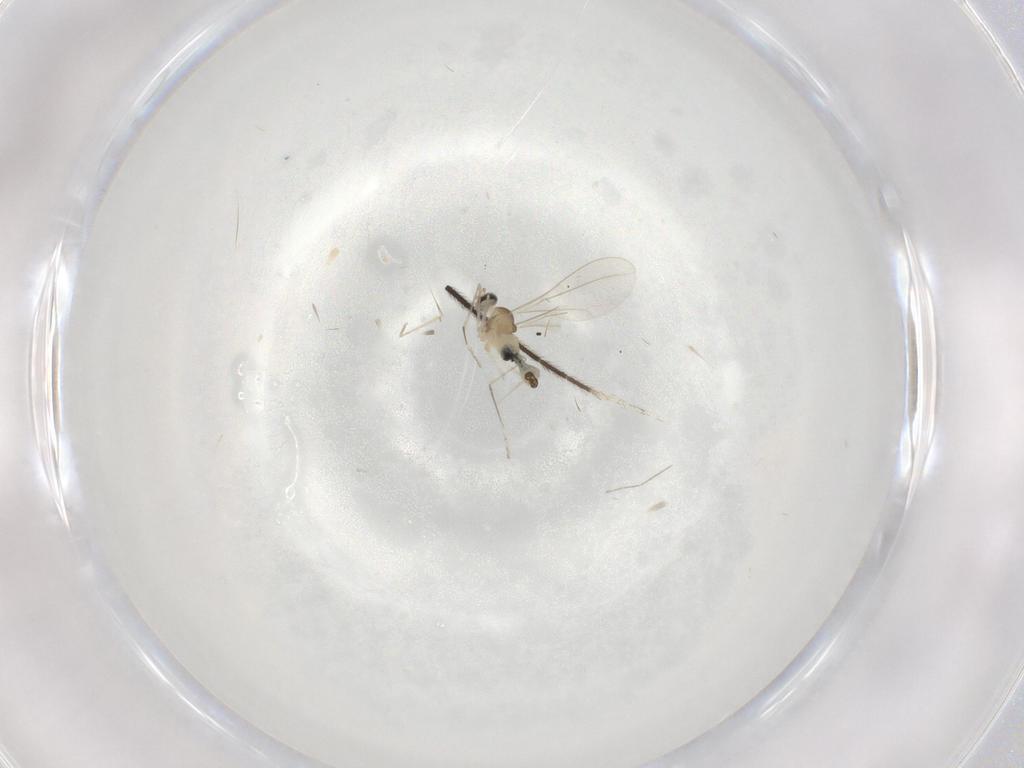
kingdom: Animalia
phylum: Arthropoda
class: Insecta
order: Diptera
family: Cecidomyiidae
